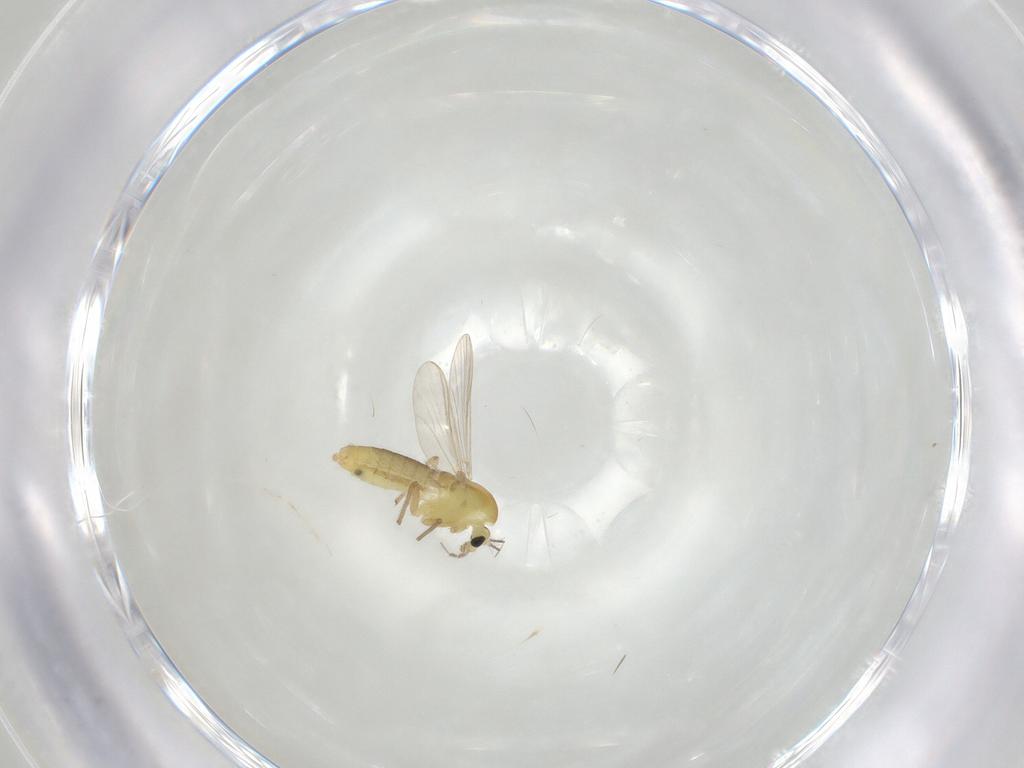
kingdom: Animalia
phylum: Arthropoda
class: Insecta
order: Diptera
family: Chironomidae
